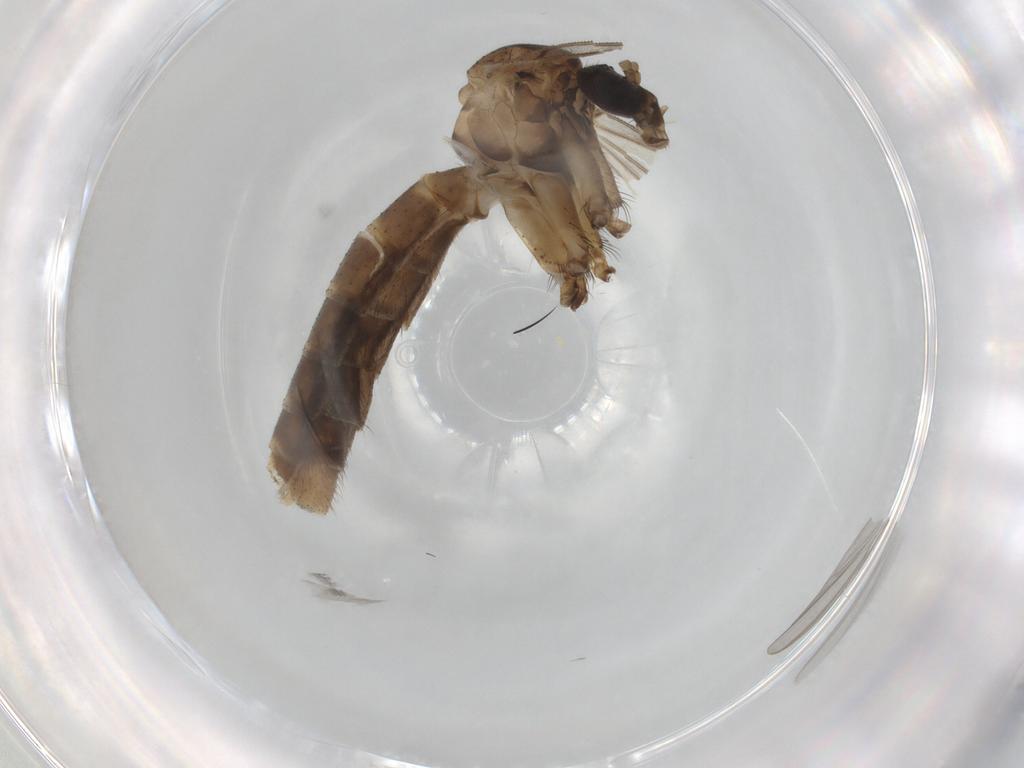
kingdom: Animalia
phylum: Arthropoda
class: Insecta
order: Diptera
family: Mycetophilidae
